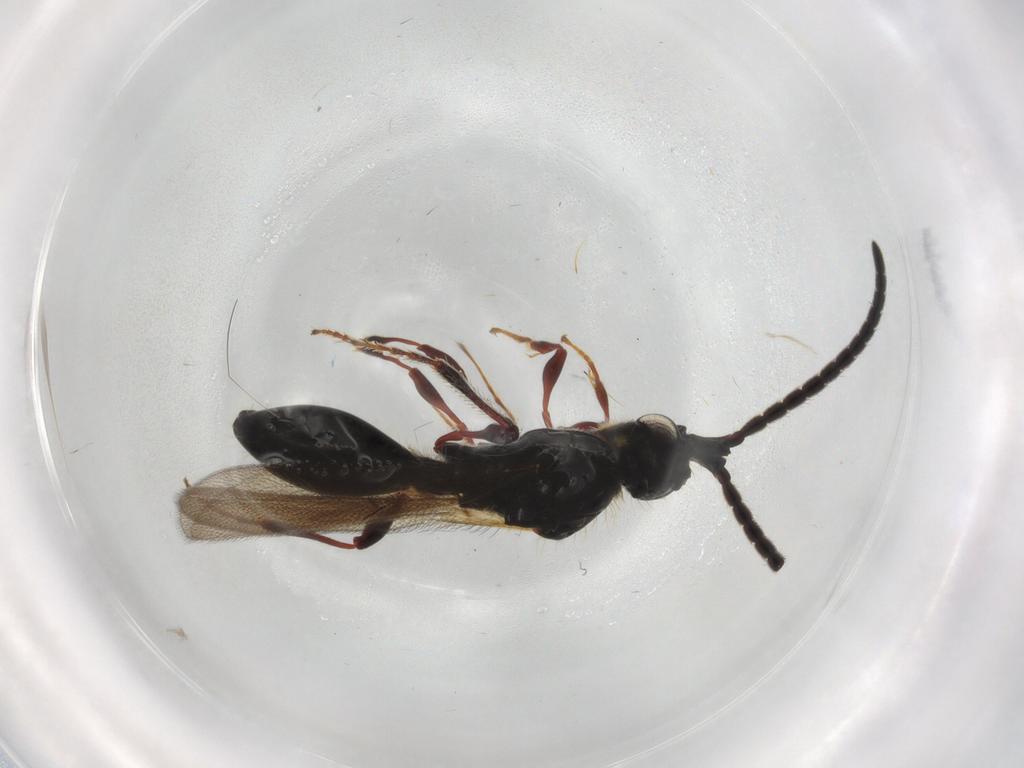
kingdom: Animalia
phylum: Arthropoda
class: Insecta
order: Hymenoptera
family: Diapriidae
